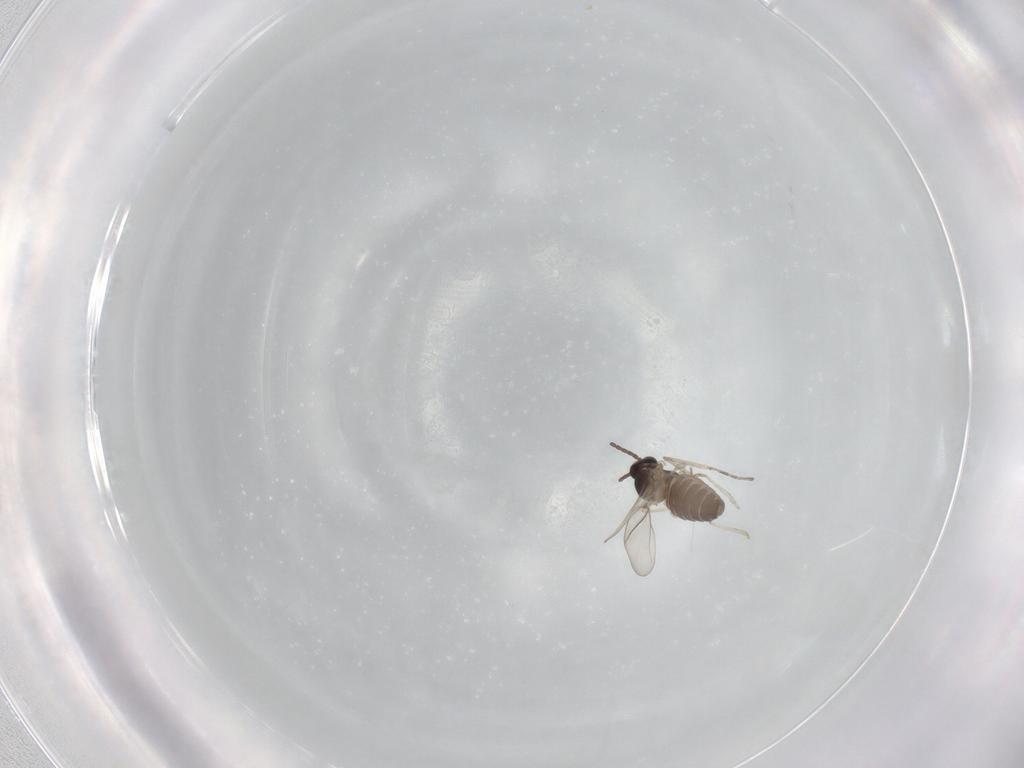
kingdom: Animalia
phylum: Arthropoda
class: Insecta
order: Diptera
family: Cecidomyiidae
